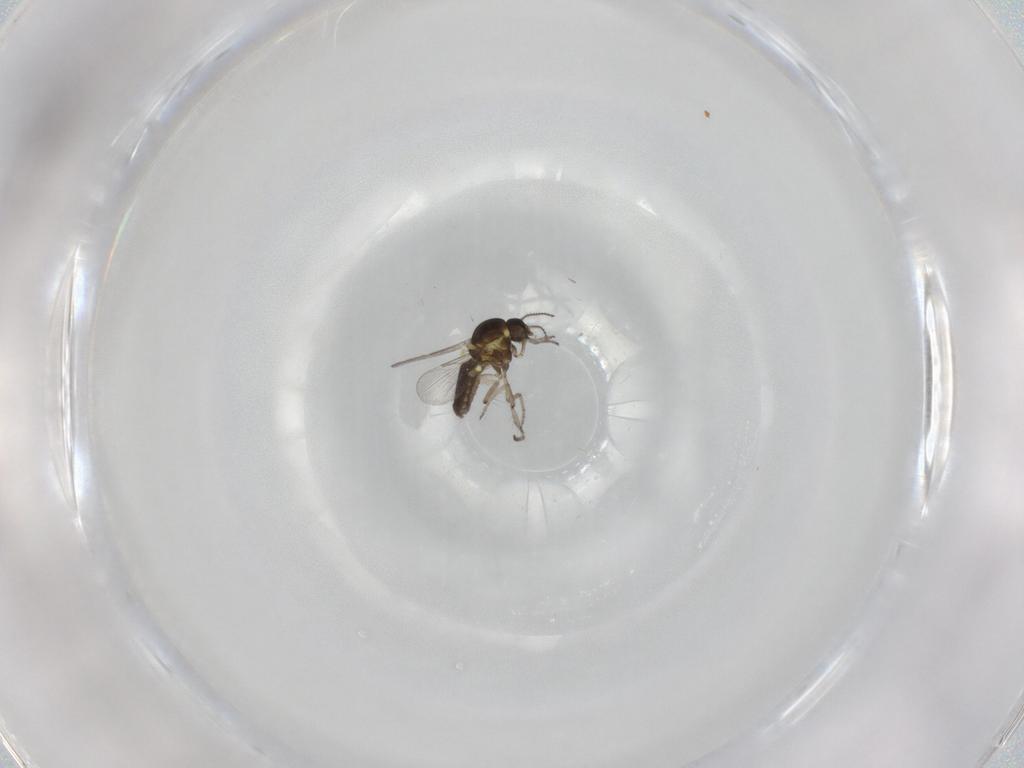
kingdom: Animalia
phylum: Arthropoda
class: Insecta
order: Diptera
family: Ceratopogonidae
